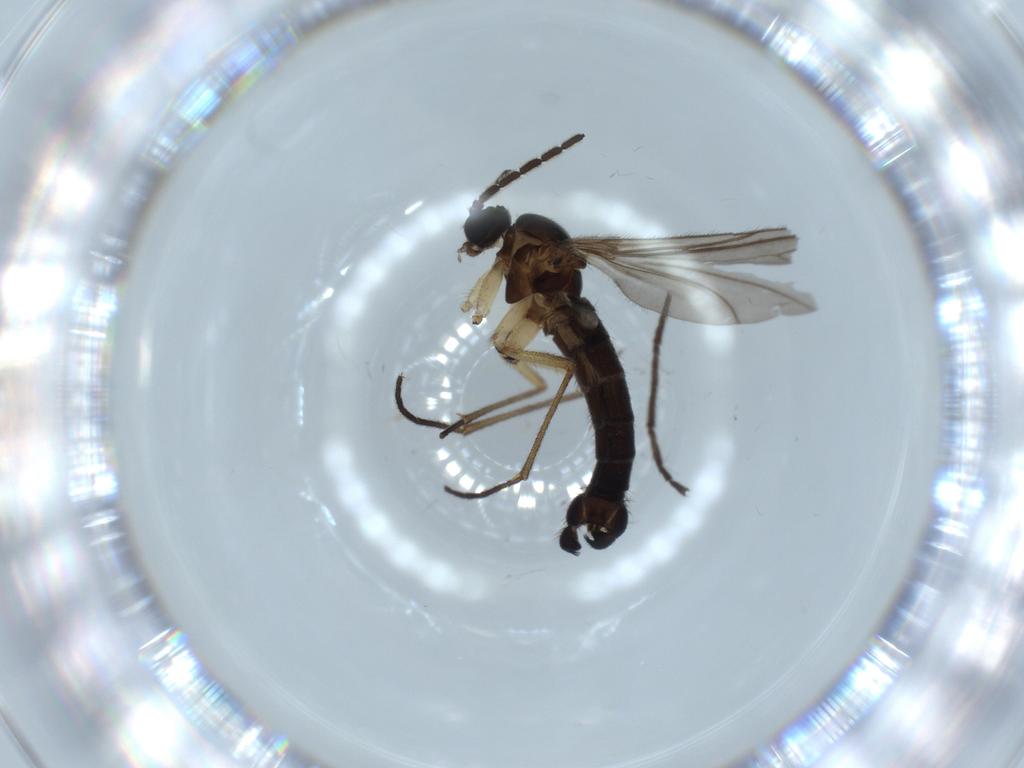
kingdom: Animalia
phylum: Arthropoda
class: Insecta
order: Diptera
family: Sciaridae
